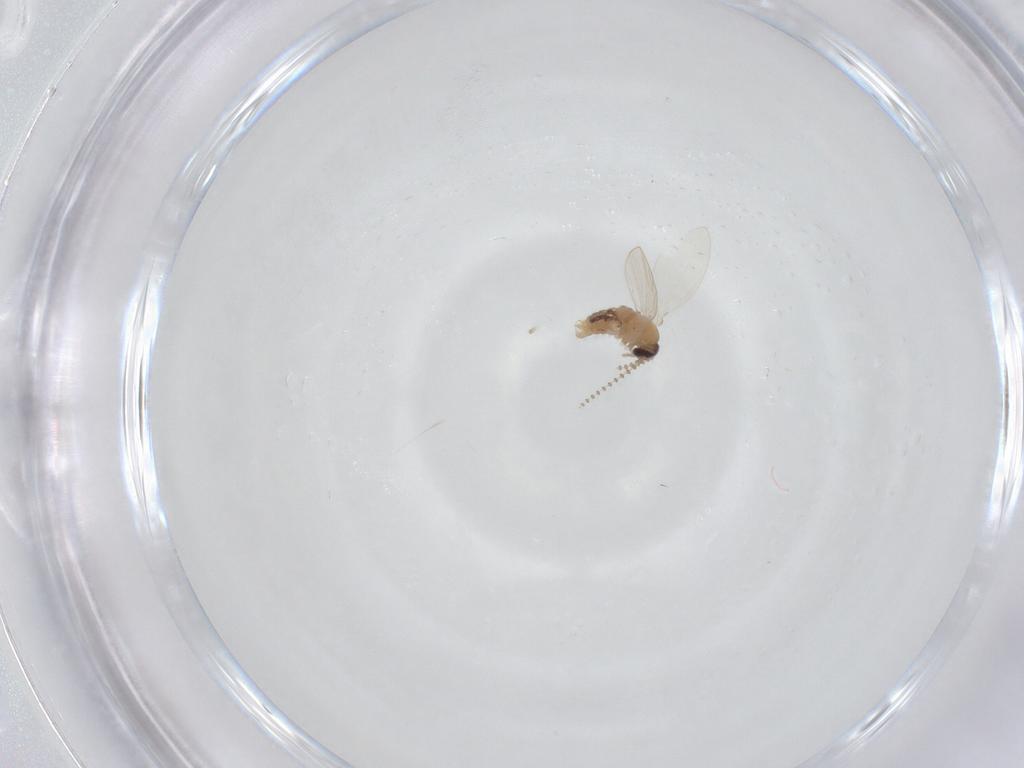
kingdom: Animalia
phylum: Arthropoda
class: Insecta
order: Diptera
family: Psychodidae
